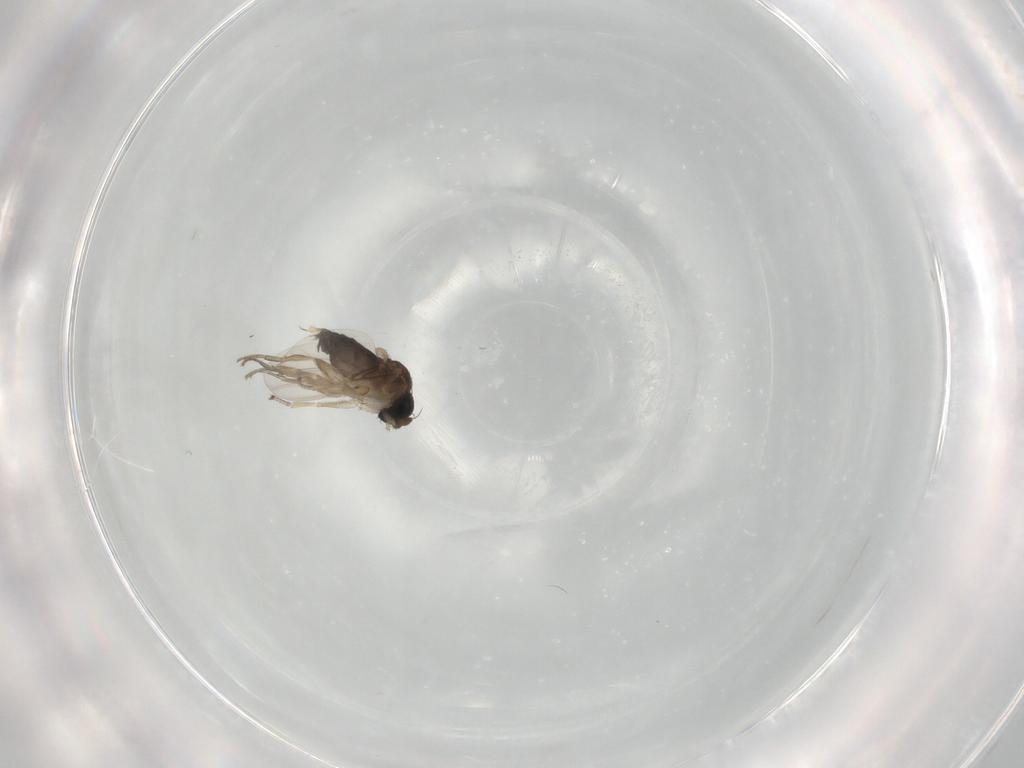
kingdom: Animalia
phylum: Arthropoda
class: Insecta
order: Diptera
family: Phoridae
